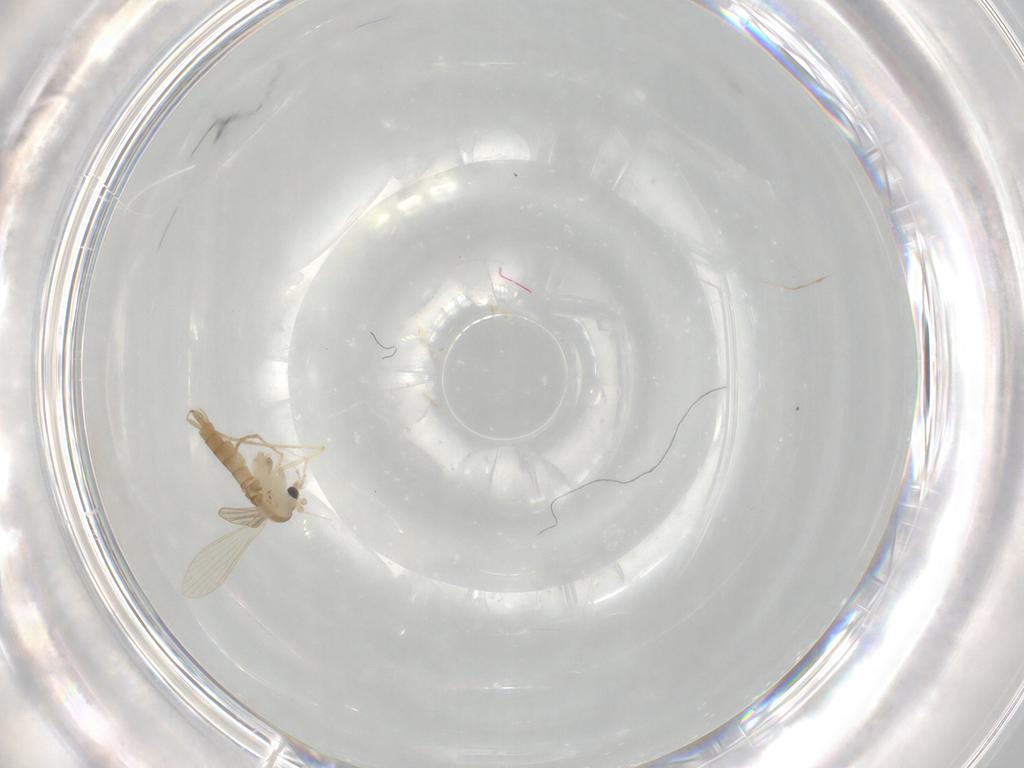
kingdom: Animalia
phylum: Arthropoda
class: Insecta
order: Diptera
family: Psychodidae
